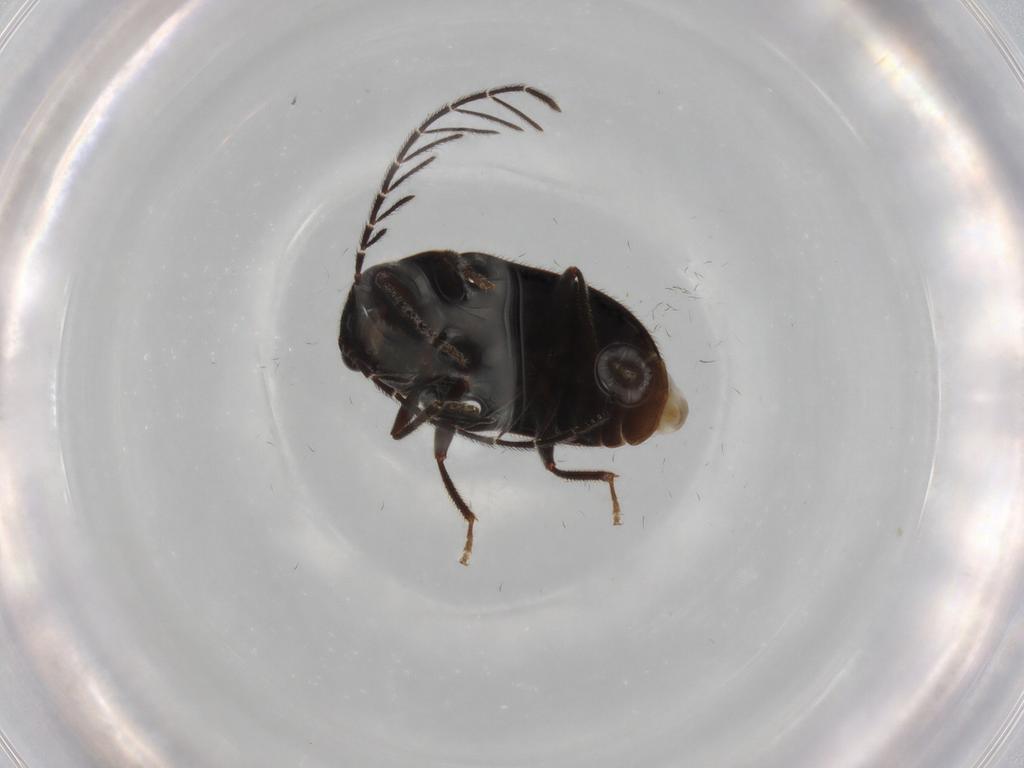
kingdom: Animalia
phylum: Arthropoda
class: Insecta
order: Coleoptera
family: Ptilodactylidae
